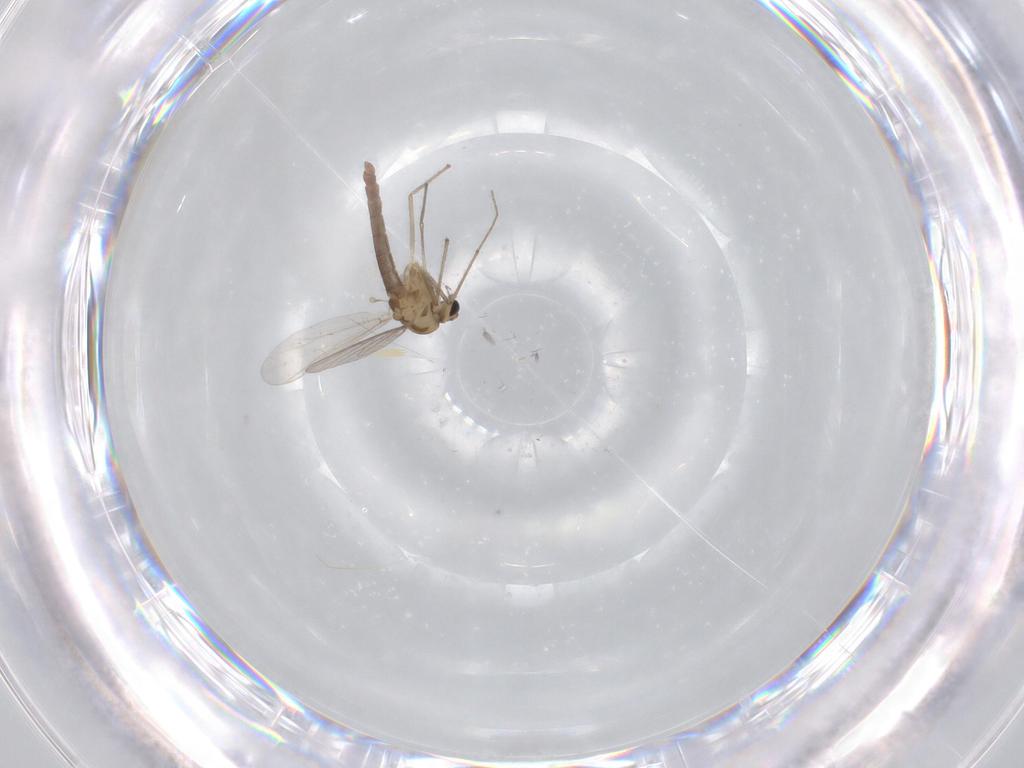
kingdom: Animalia
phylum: Arthropoda
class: Insecta
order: Diptera
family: Chironomidae
